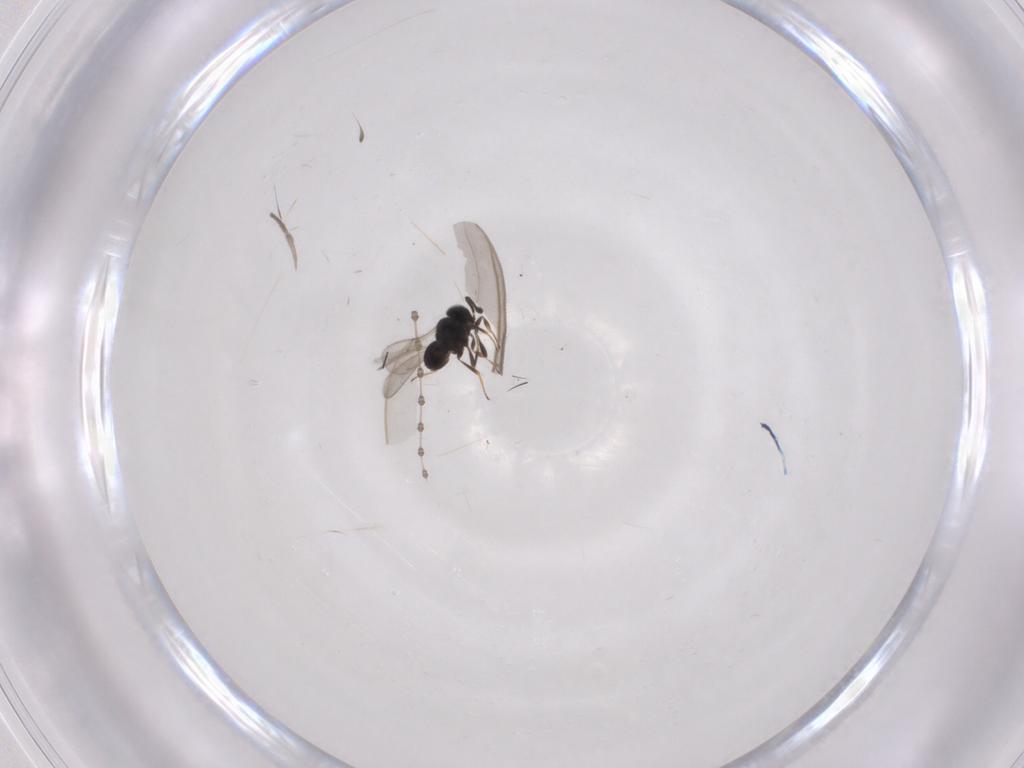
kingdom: Animalia
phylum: Arthropoda
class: Insecta
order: Hymenoptera
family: Scelionidae
